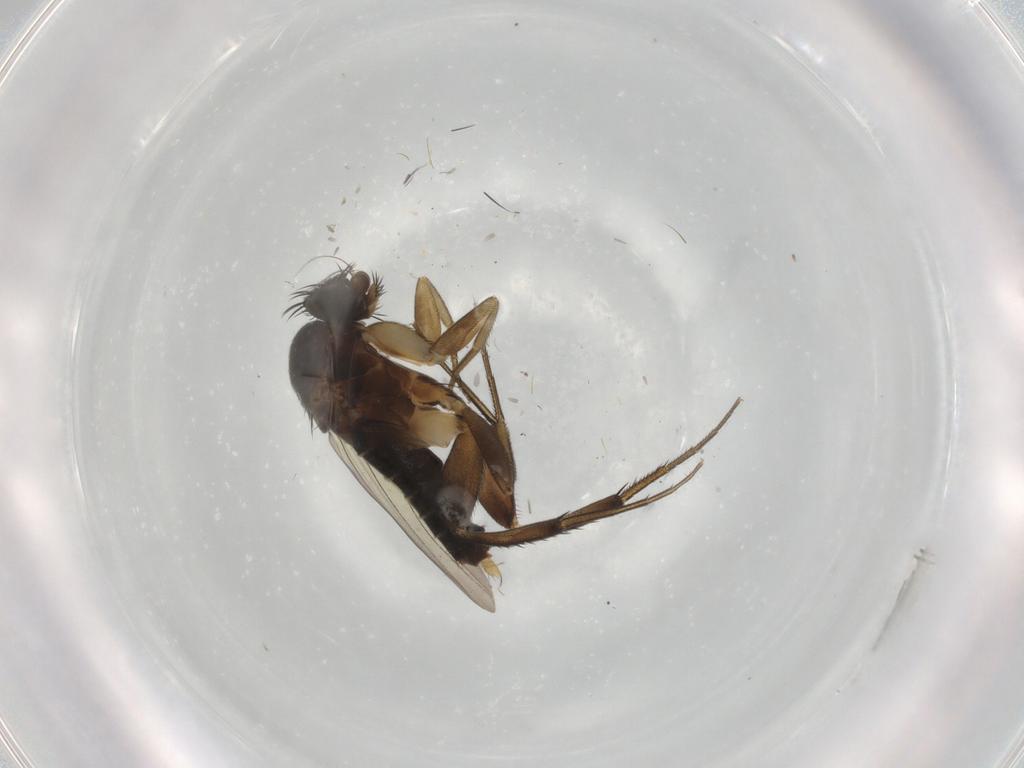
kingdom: Animalia
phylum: Arthropoda
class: Insecta
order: Diptera
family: Phoridae
